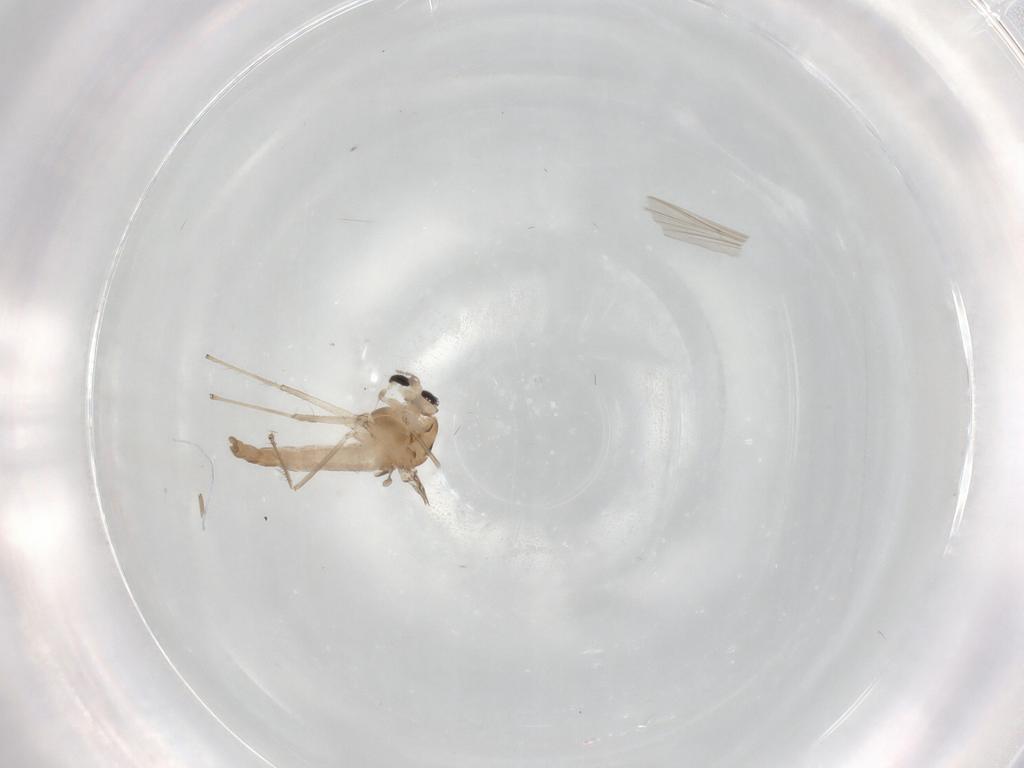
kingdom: Animalia
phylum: Arthropoda
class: Insecta
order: Diptera
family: Chironomidae
